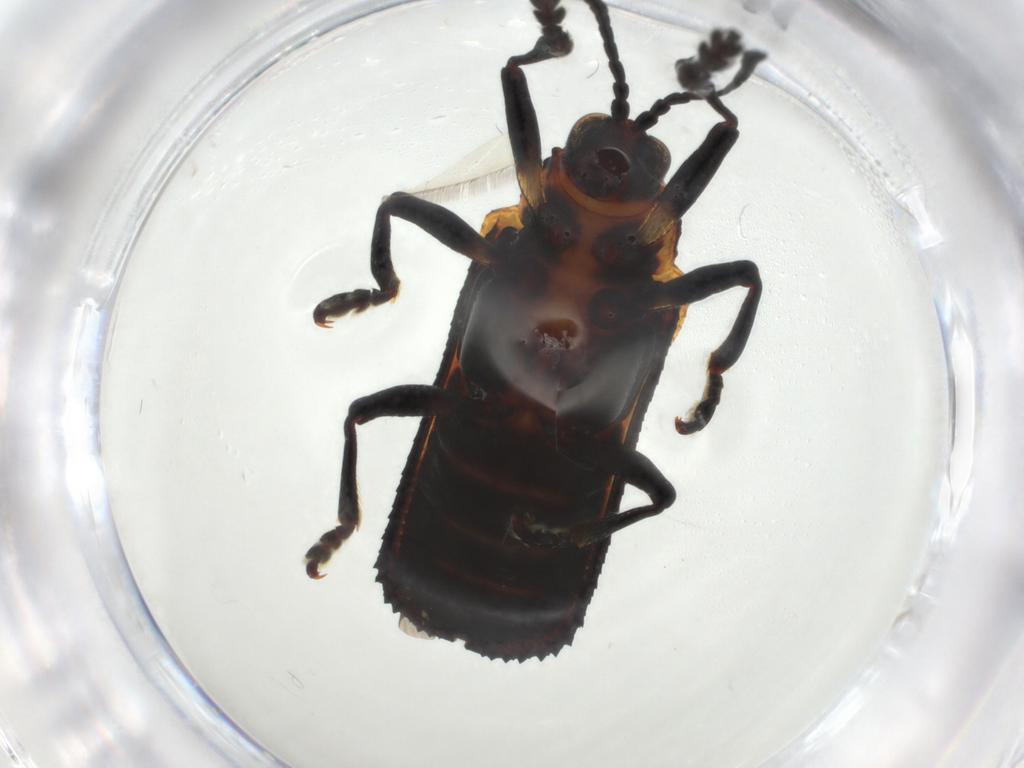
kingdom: Animalia
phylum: Arthropoda
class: Insecta
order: Coleoptera
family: Chrysomelidae
